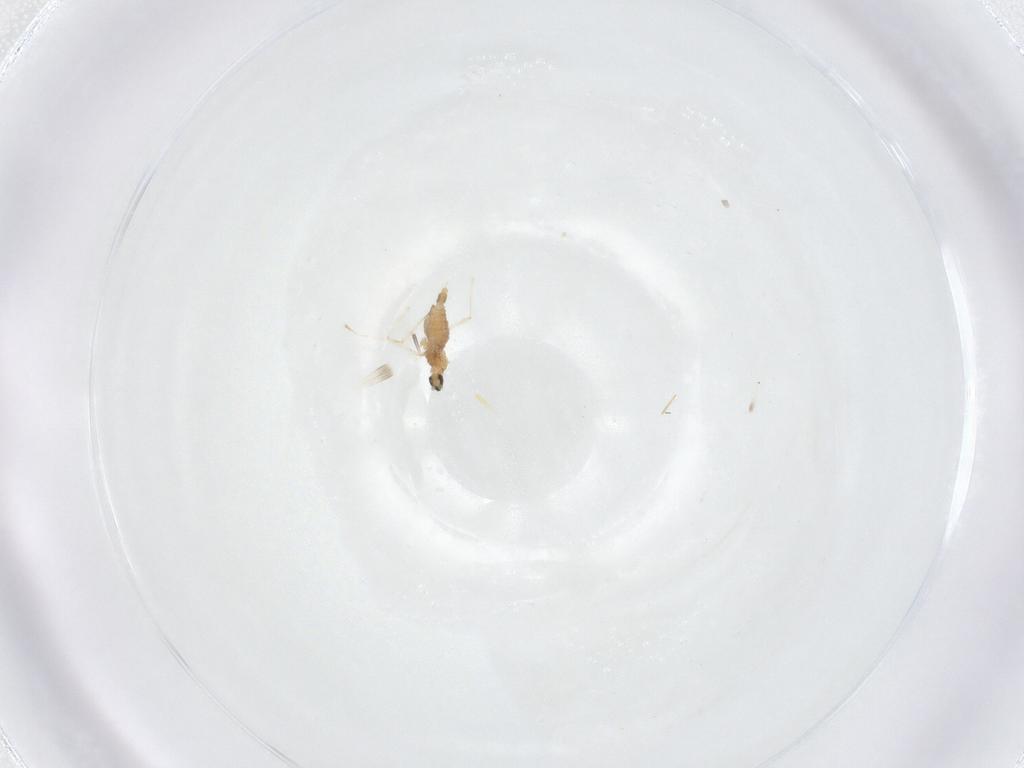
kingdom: Animalia
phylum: Arthropoda
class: Insecta
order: Diptera
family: Cecidomyiidae
